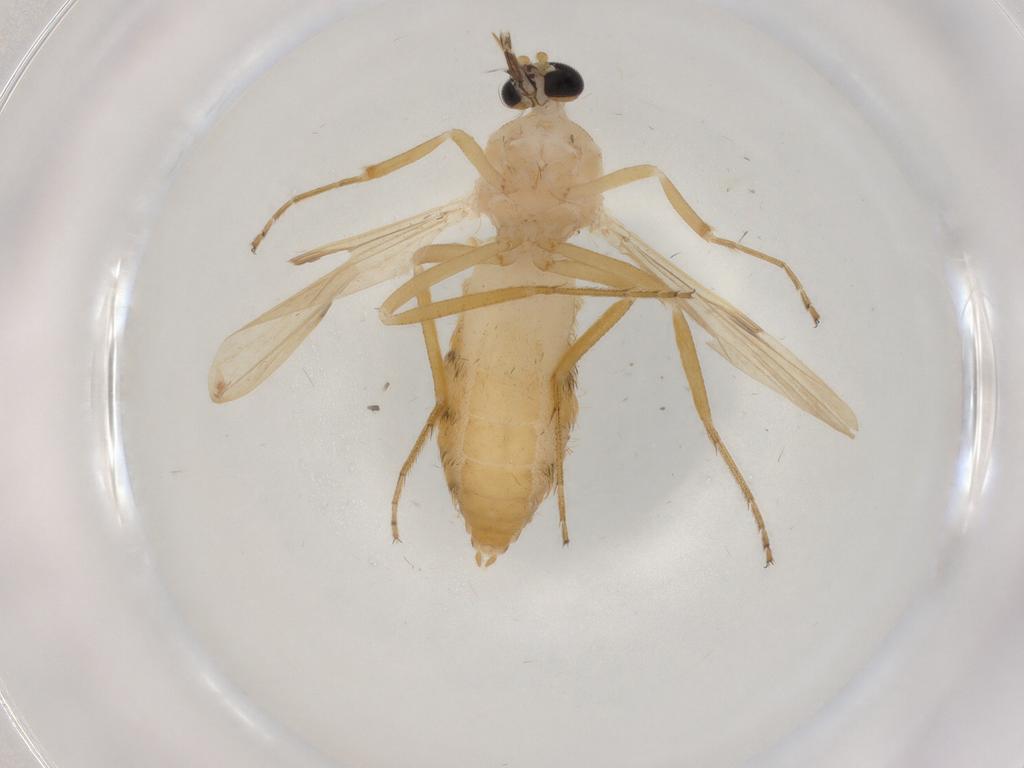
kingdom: Animalia
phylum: Arthropoda
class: Insecta
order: Diptera
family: Ceratopogonidae
